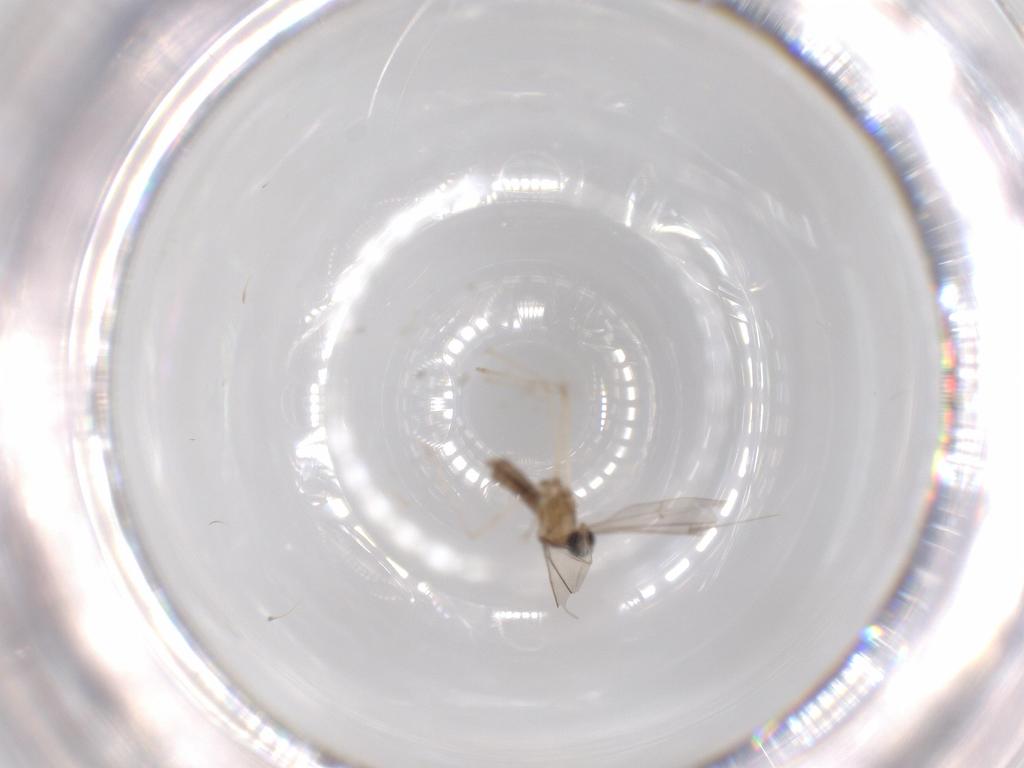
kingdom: Animalia
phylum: Arthropoda
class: Insecta
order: Diptera
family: Cecidomyiidae
